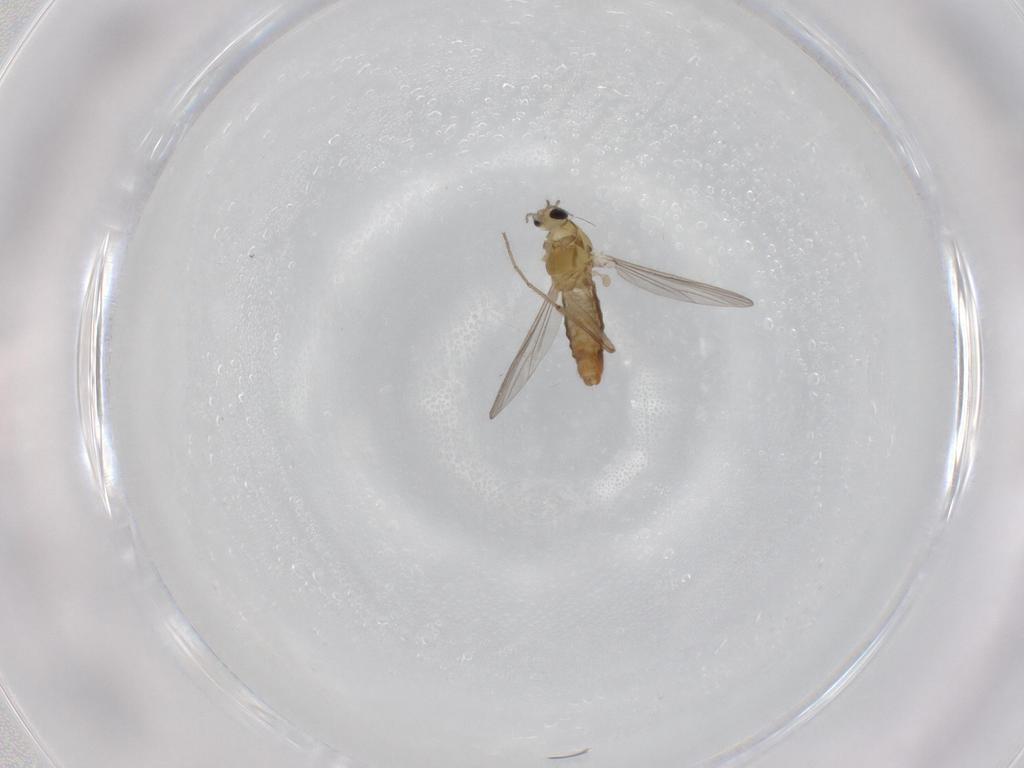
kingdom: Animalia
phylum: Arthropoda
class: Insecta
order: Diptera
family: Chironomidae
